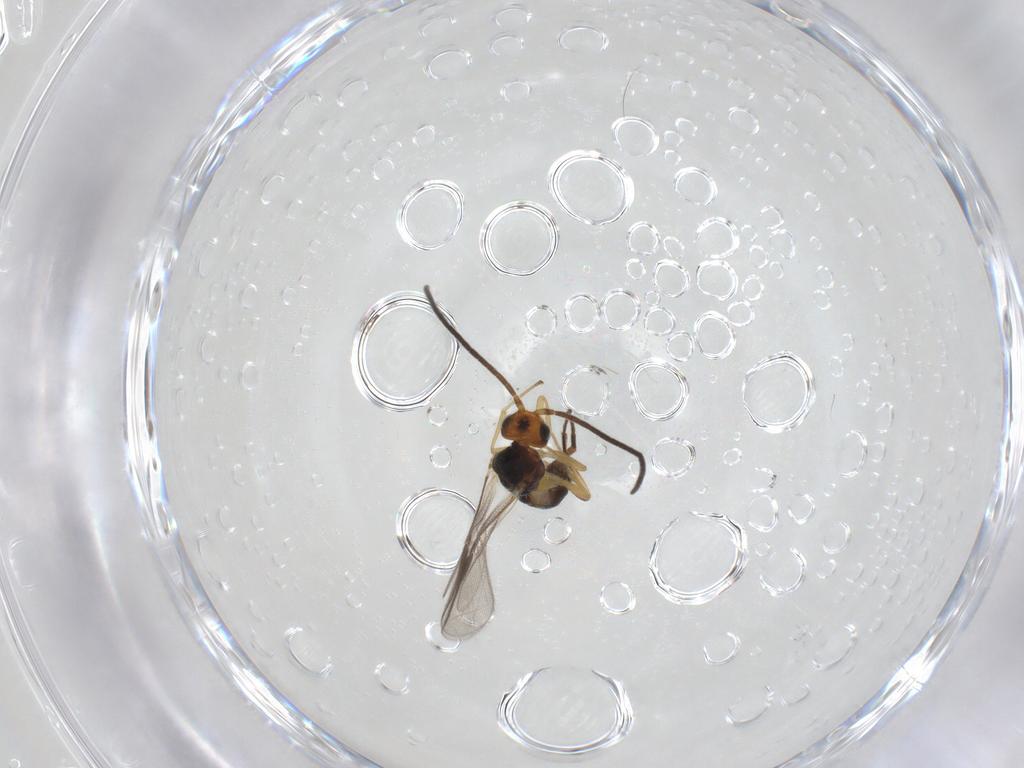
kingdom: Animalia
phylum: Arthropoda
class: Insecta
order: Hymenoptera
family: Braconidae
